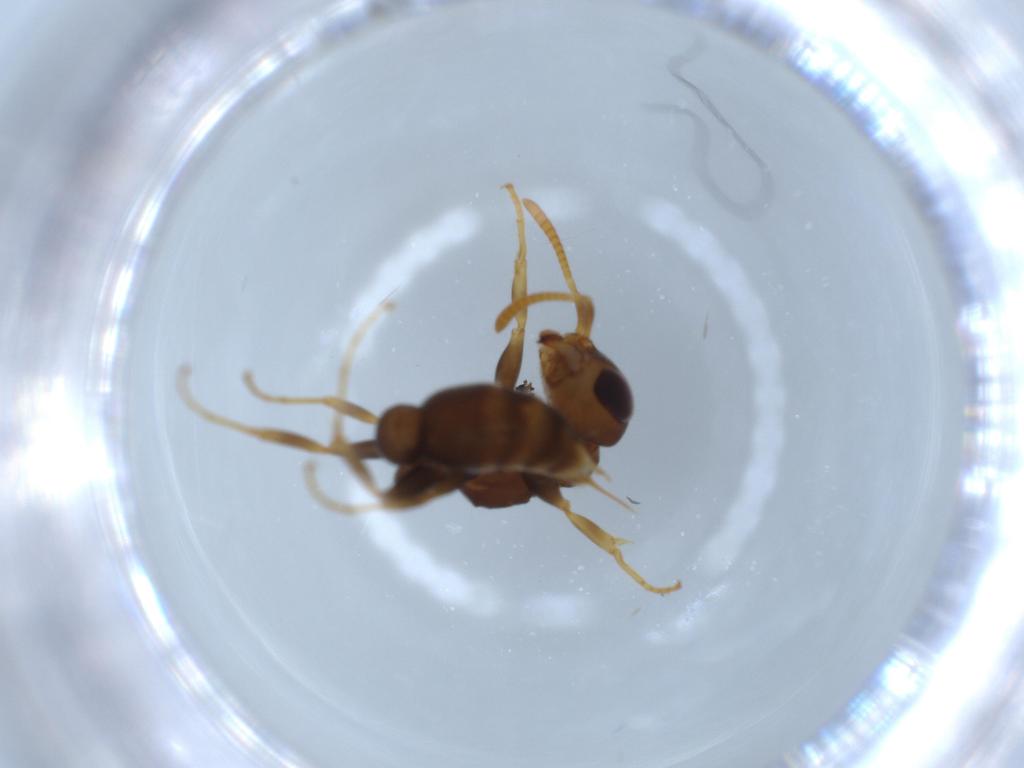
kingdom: Animalia
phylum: Arthropoda
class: Insecta
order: Hymenoptera
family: Formicidae
